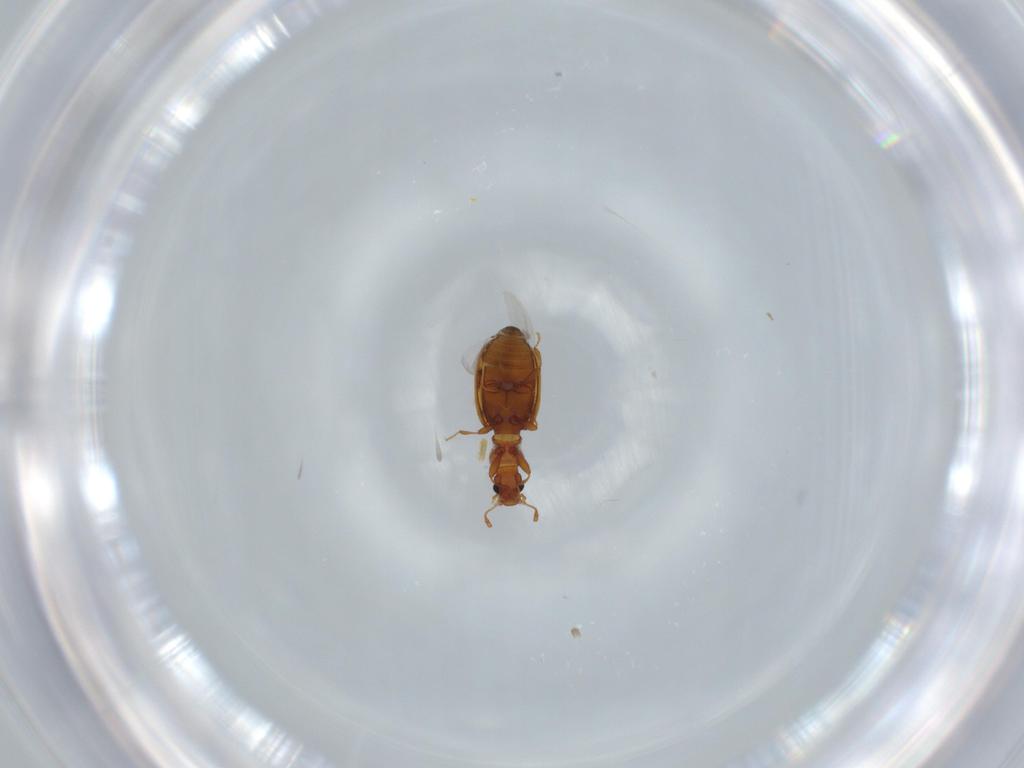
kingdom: Animalia
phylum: Arthropoda
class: Insecta
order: Coleoptera
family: Latridiidae
